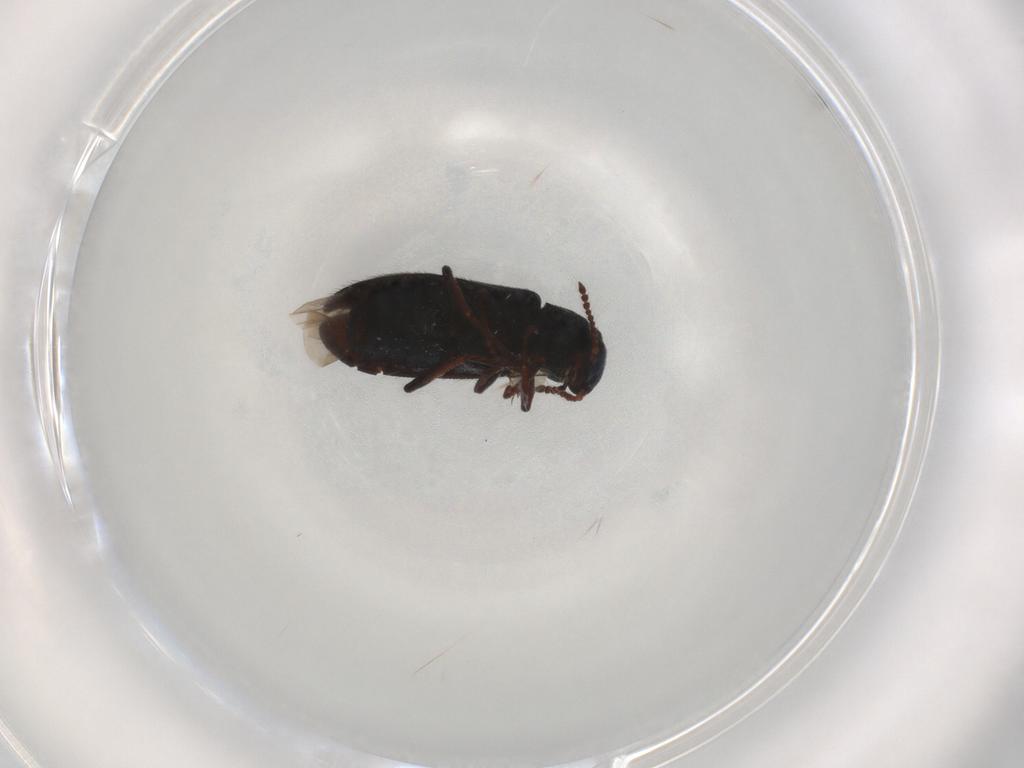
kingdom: Animalia
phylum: Arthropoda
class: Insecta
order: Coleoptera
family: Melyridae
